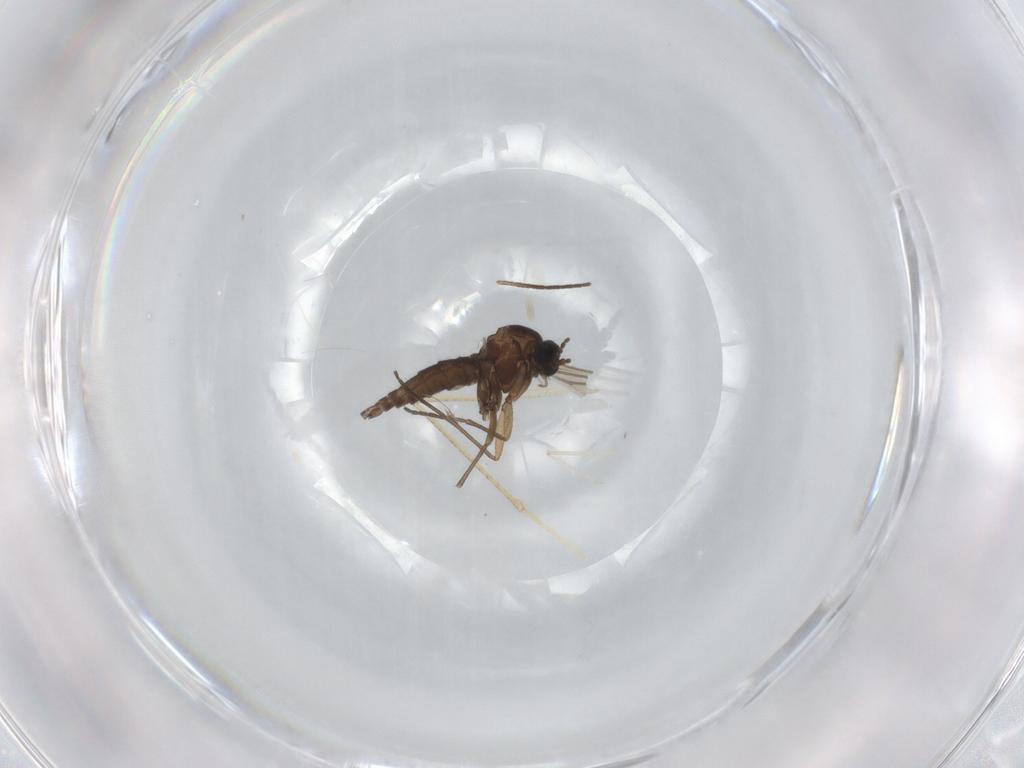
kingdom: Animalia
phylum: Arthropoda
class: Insecta
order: Diptera
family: Sciaridae
